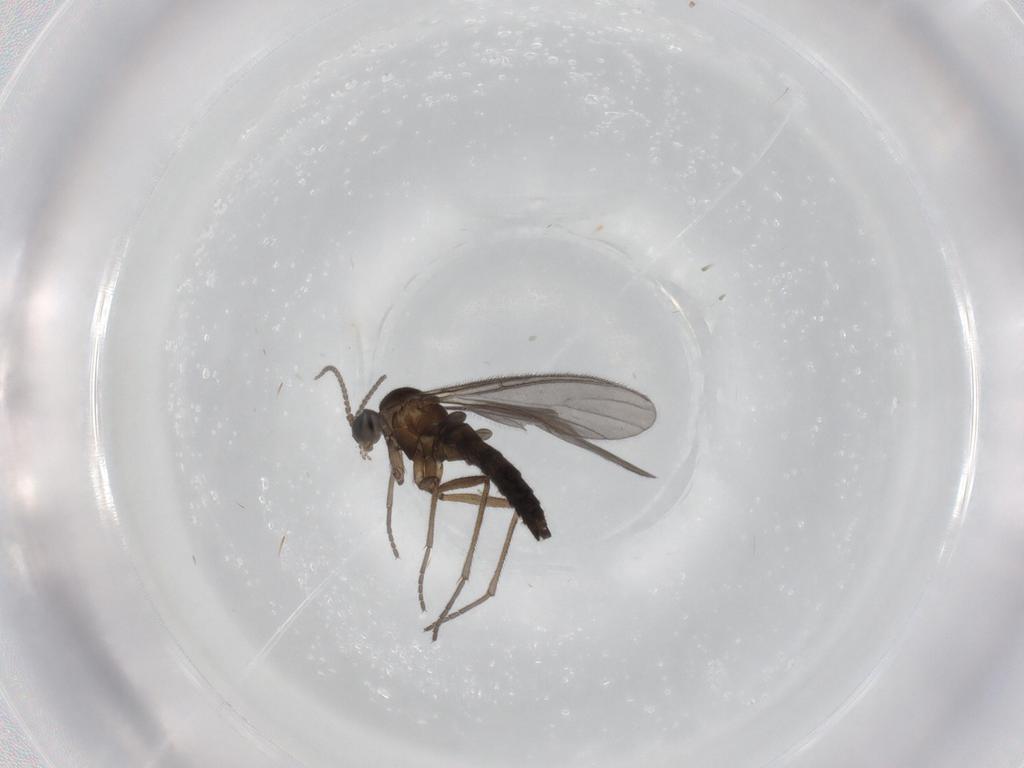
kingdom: Animalia
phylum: Arthropoda
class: Insecta
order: Diptera
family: Sciaridae
